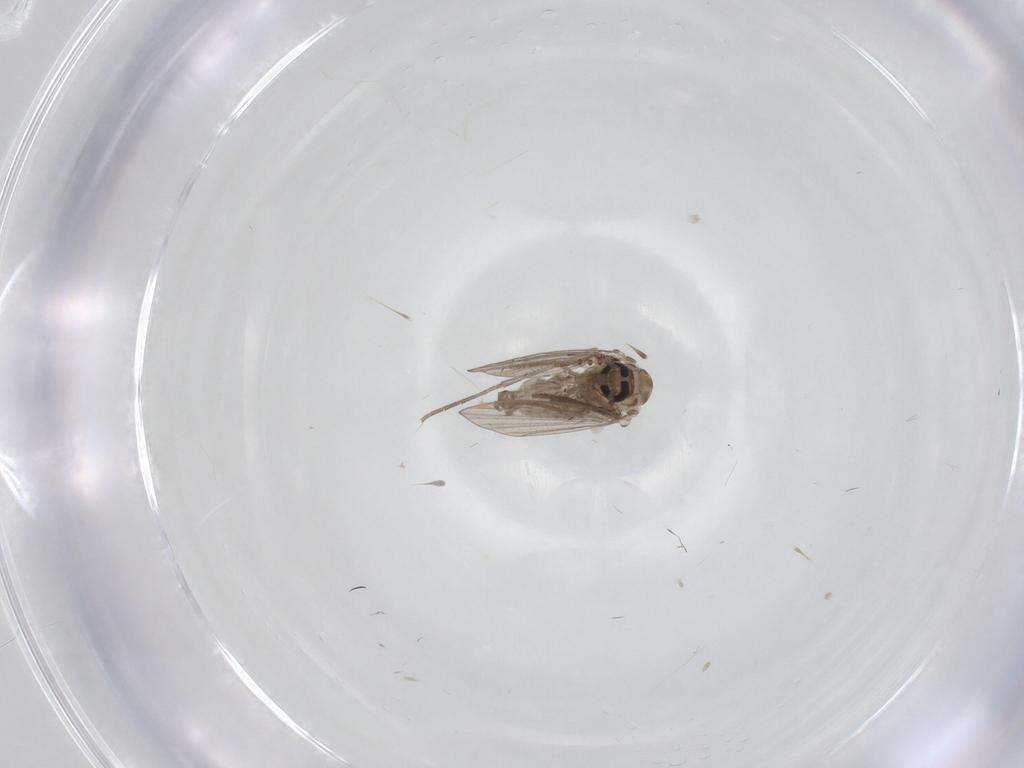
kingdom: Animalia
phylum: Arthropoda
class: Insecta
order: Diptera
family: Psychodidae
